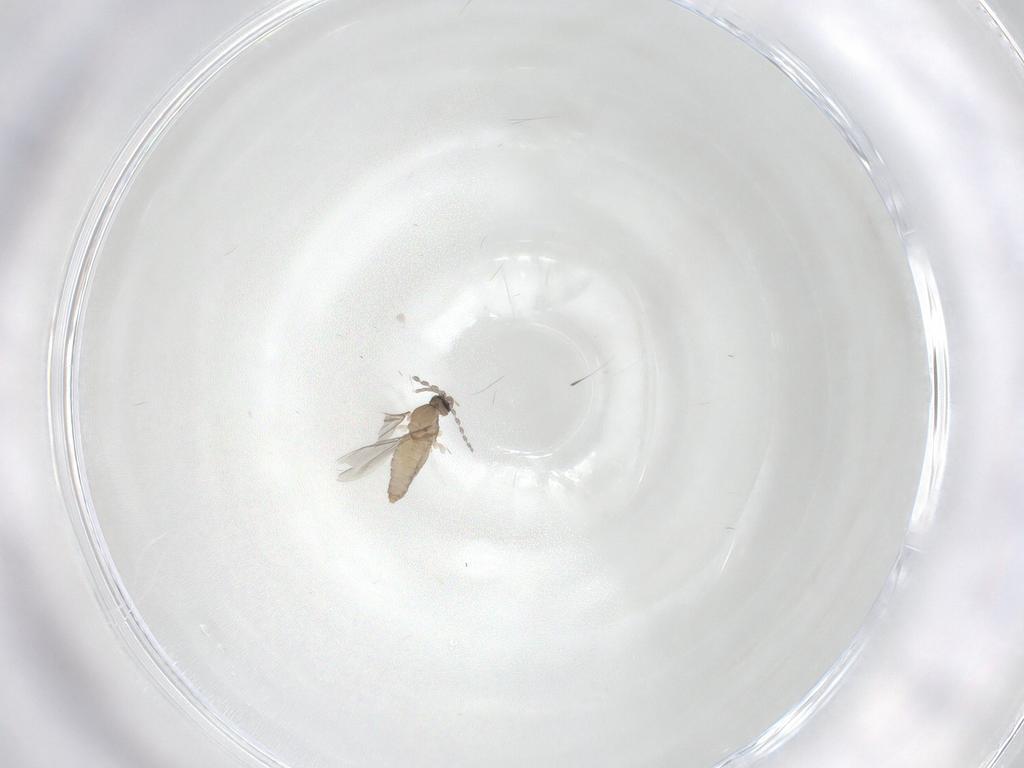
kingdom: Animalia
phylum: Arthropoda
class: Insecta
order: Diptera
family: Cecidomyiidae
